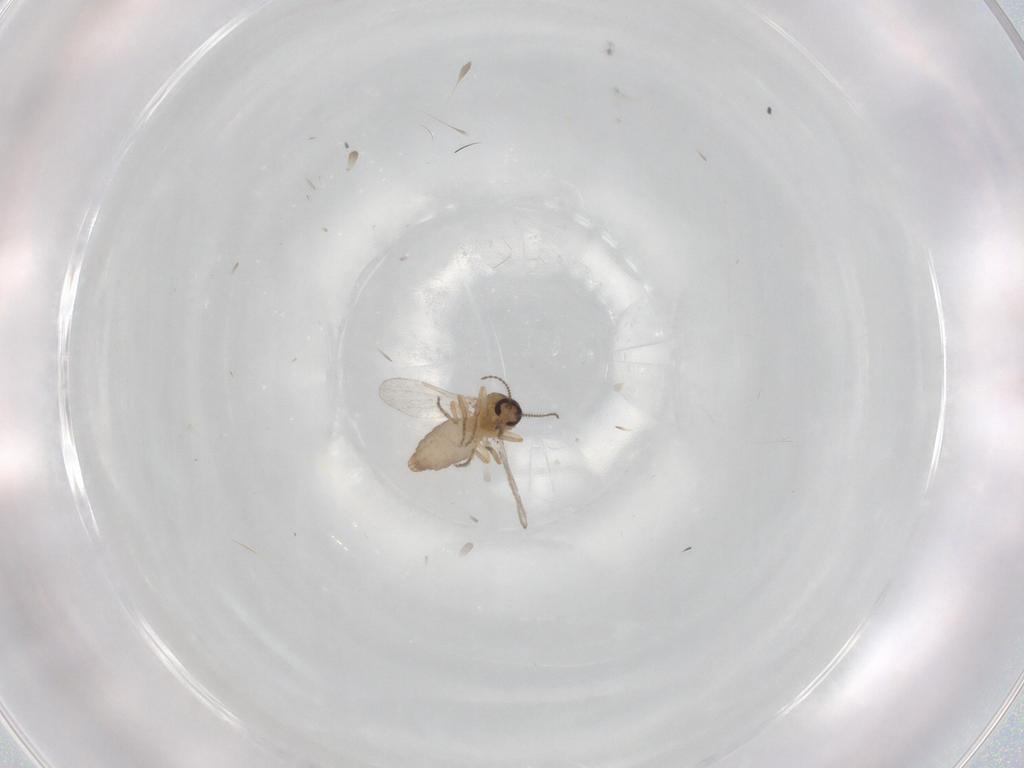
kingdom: Animalia
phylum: Arthropoda
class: Insecta
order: Diptera
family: Ceratopogonidae
